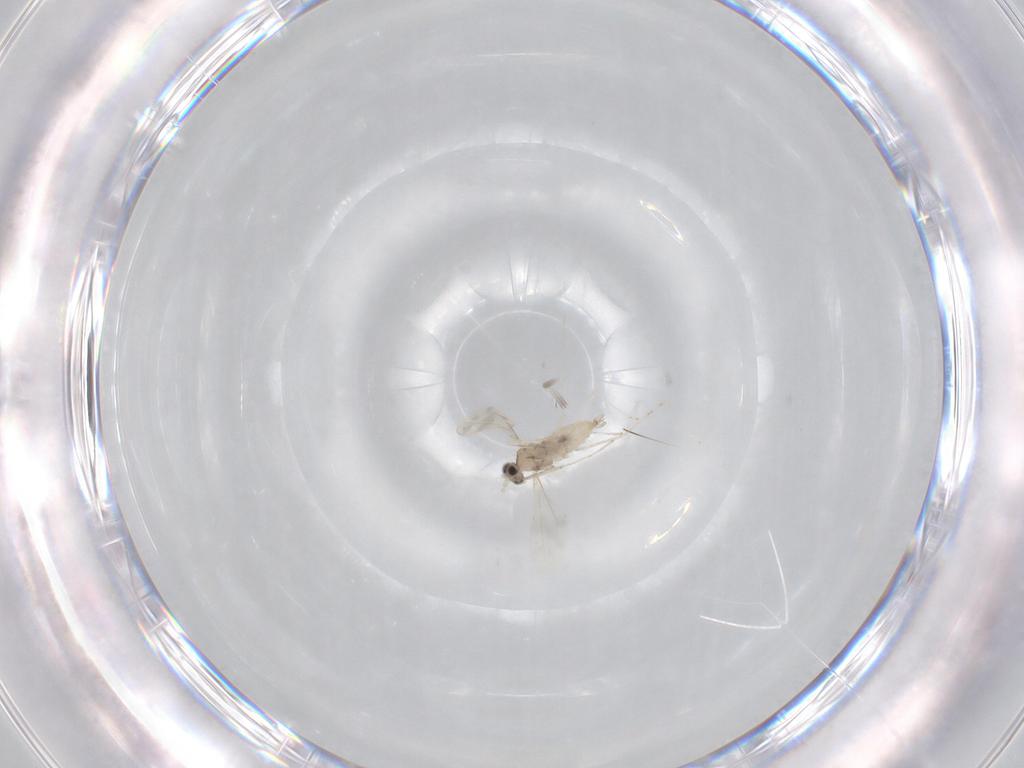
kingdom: Animalia
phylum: Arthropoda
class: Insecta
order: Diptera
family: Cecidomyiidae
